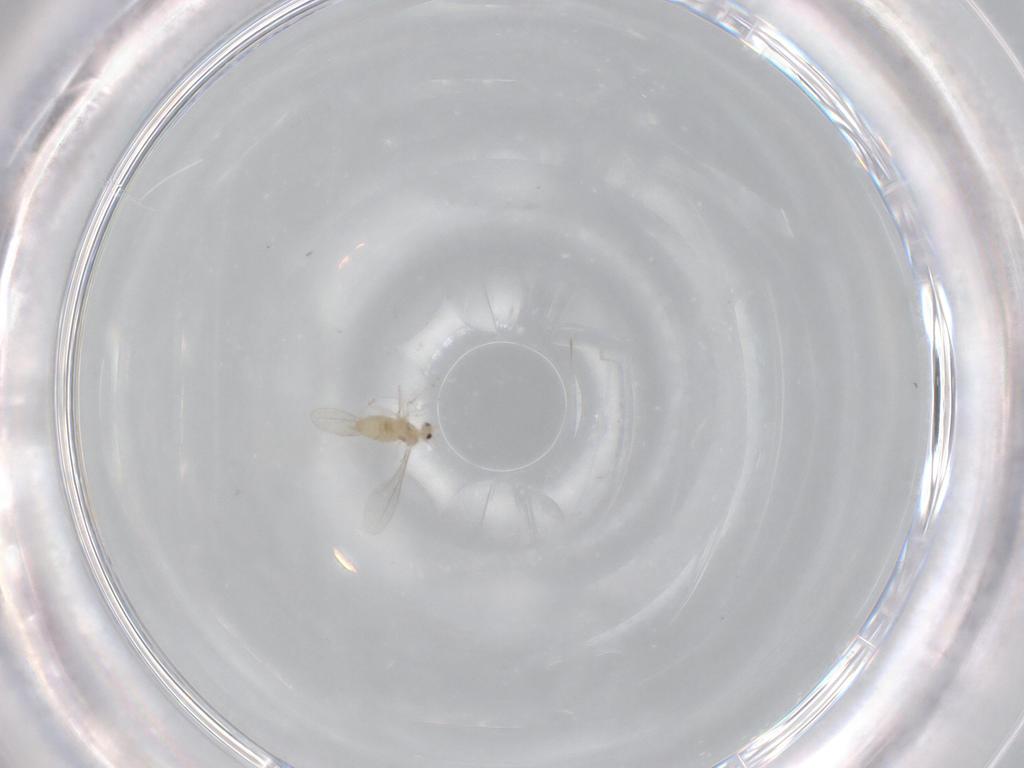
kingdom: Animalia
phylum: Arthropoda
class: Insecta
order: Diptera
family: Cecidomyiidae
